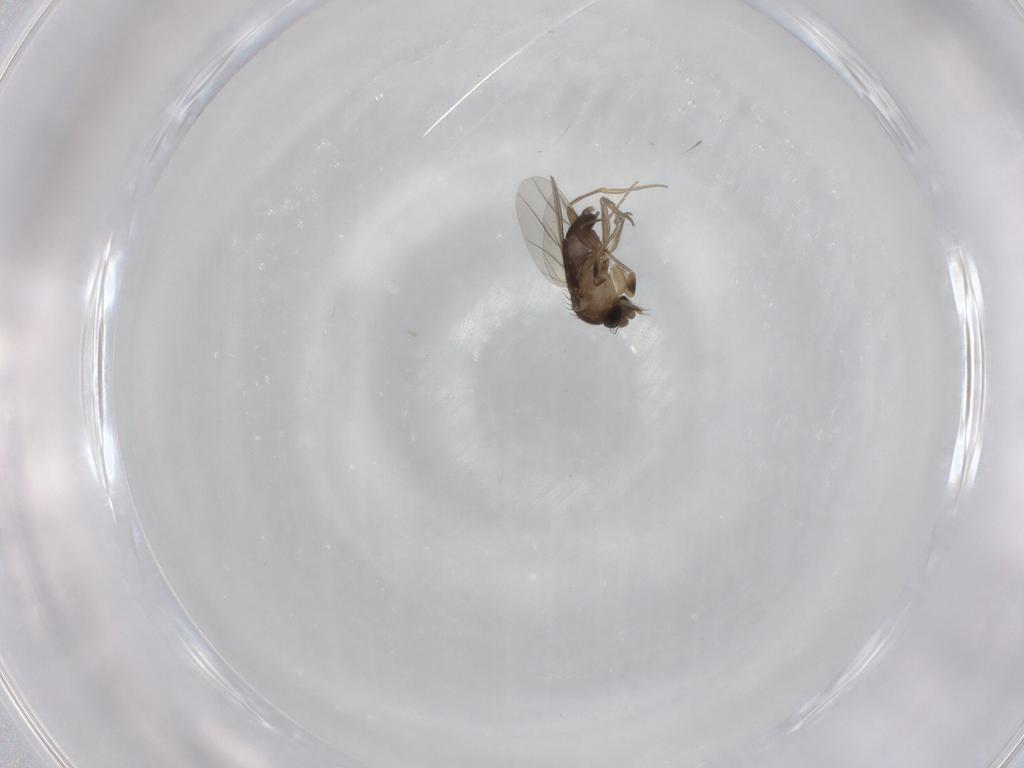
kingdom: Animalia
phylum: Arthropoda
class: Insecta
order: Diptera
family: Phoridae
